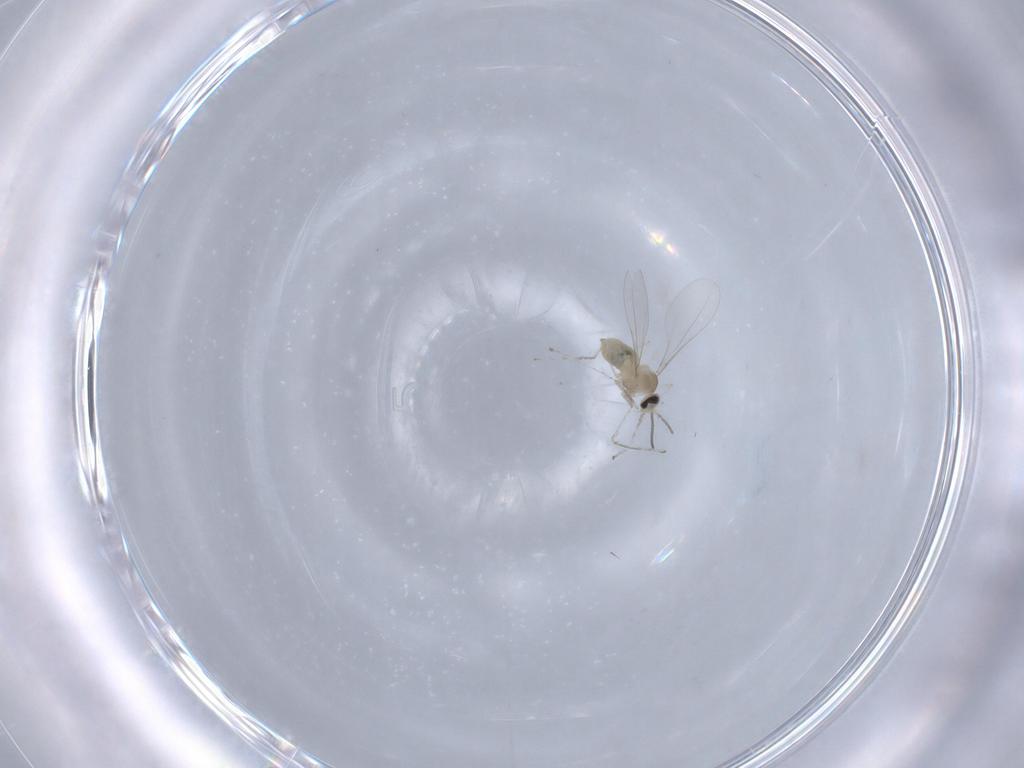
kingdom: Animalia
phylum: Arthropoda
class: Insecta
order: Diptera
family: Cecidomyiidae
